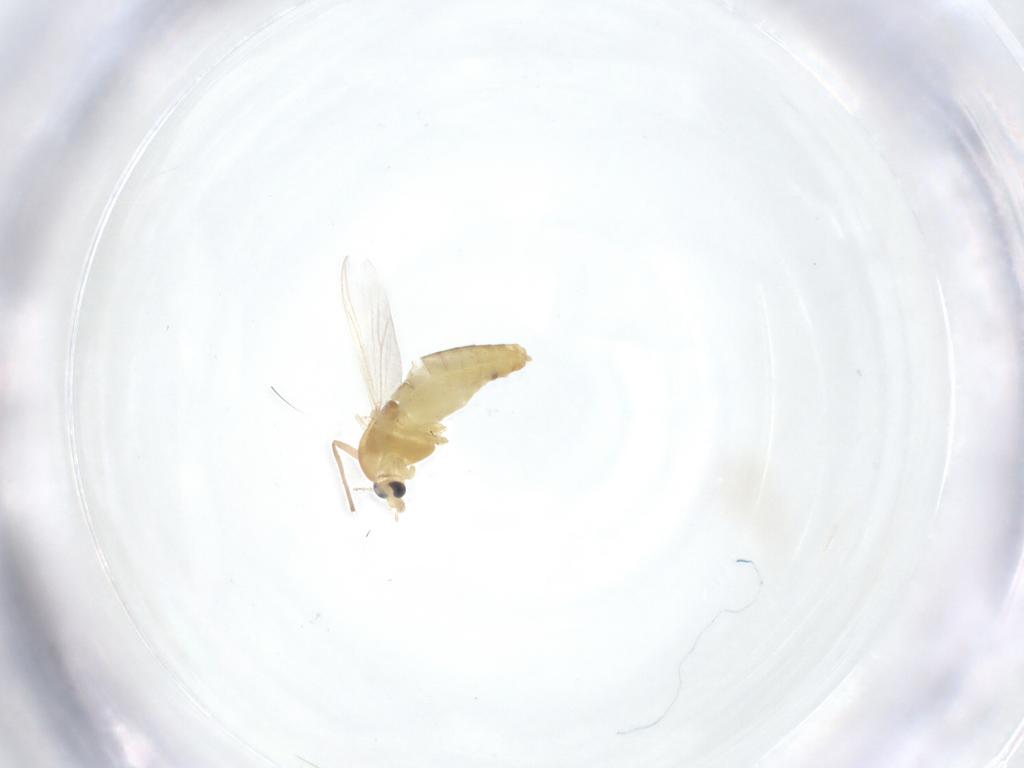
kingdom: Animalia
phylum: Arthropoda
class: Insecta
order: Diptera
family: Chironomidae
